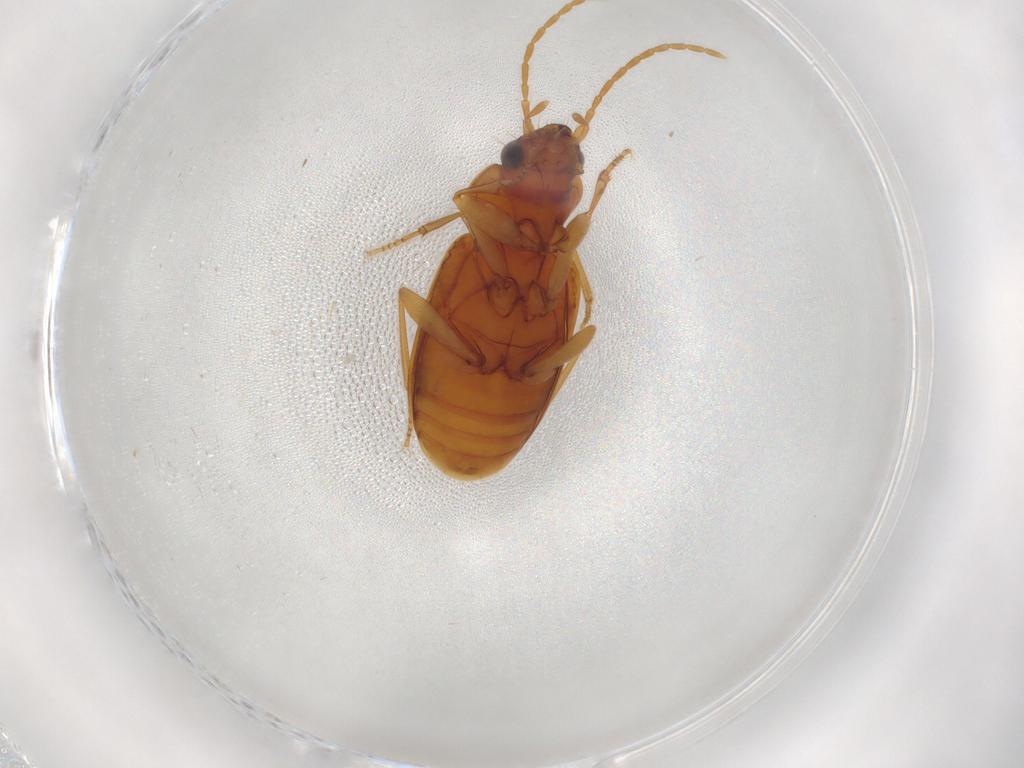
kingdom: Animalia
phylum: Arthropoda
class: Insecta
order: Coleoptera
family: Carabidae
